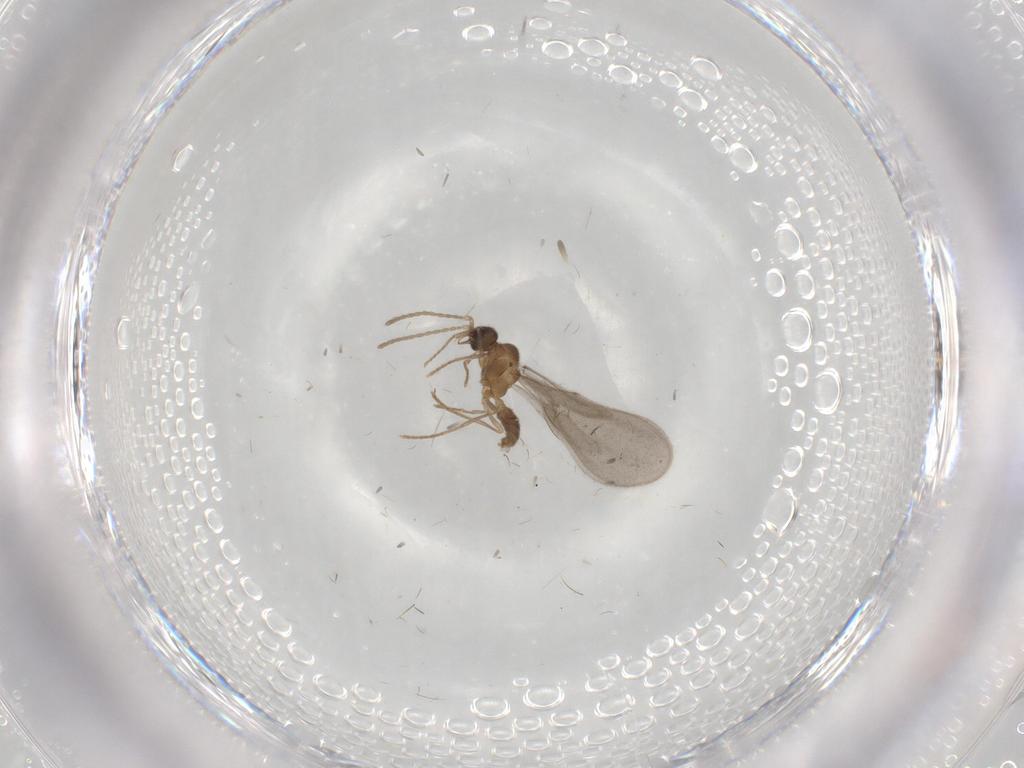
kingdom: Animalia
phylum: Arthropoda
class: Insecta
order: Hymenoptera
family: Formicidae
